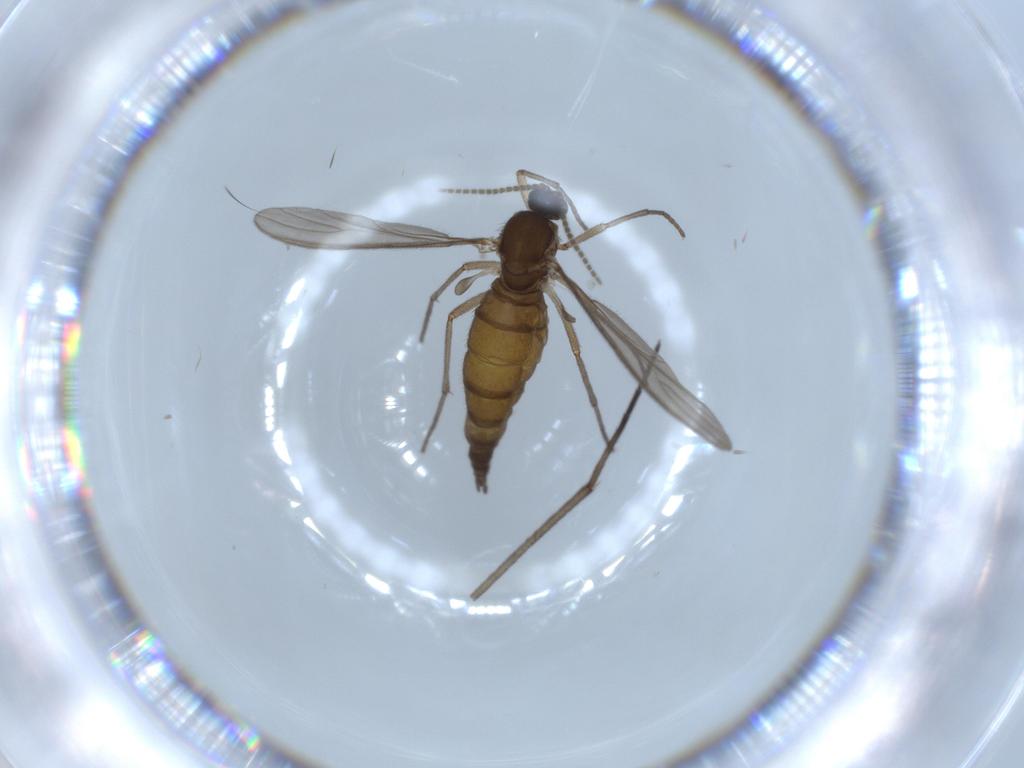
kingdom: Animalia
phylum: Arthropoda
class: Insecta
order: Diptera
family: Sciaridae
